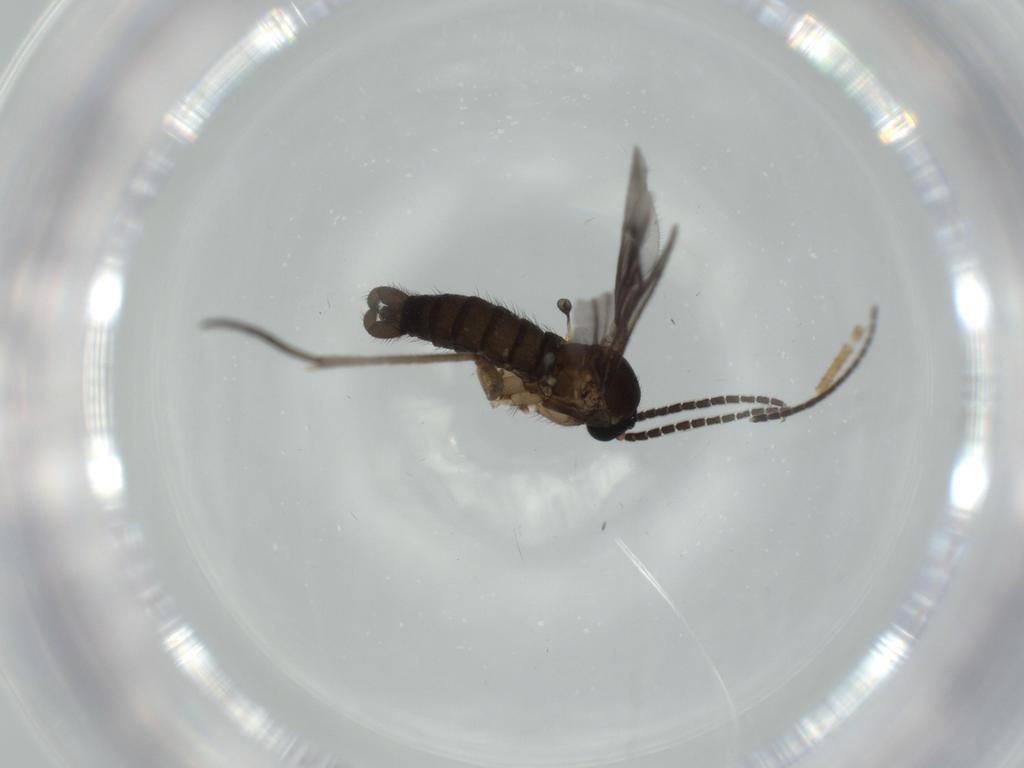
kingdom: Animalia
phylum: Arthropoda
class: Insecta
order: Diptera
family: Sciaridae
